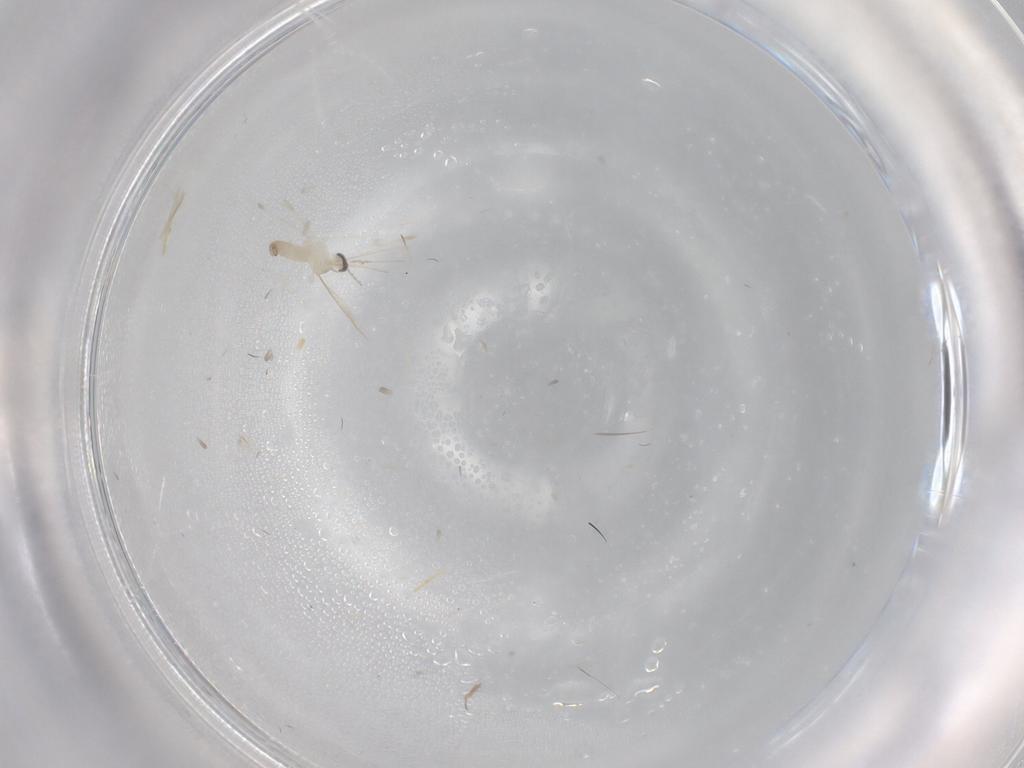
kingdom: Animalia
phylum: Arthropoda
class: Insecta
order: Diptera
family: Cecidomyiidae
